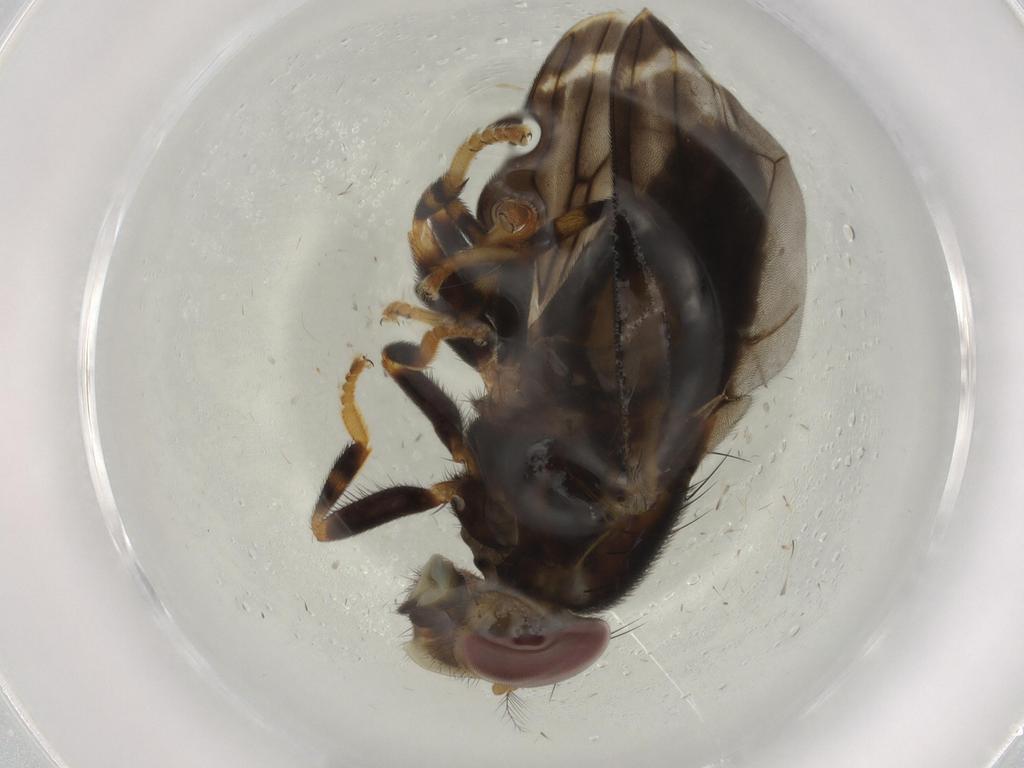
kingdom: Animalia
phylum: Arthropoda
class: Insecta
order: Diptera
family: Periscelididae
